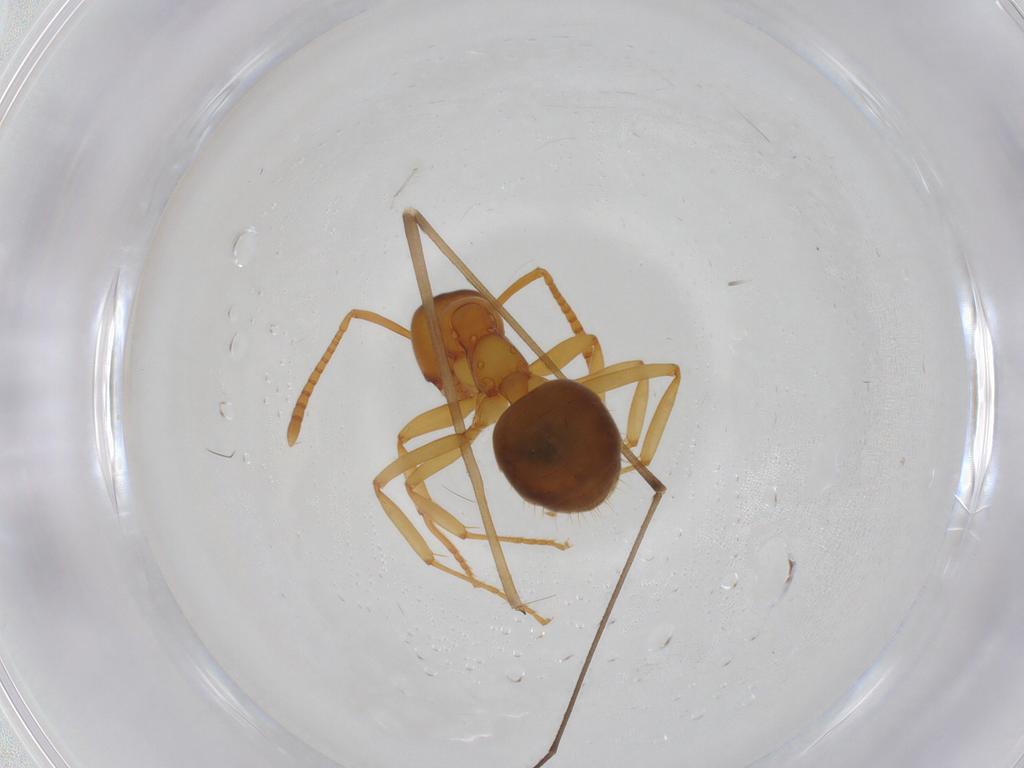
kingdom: Animalia
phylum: Arthropoda
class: Insecta
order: Hymenoptera
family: Formicidae
